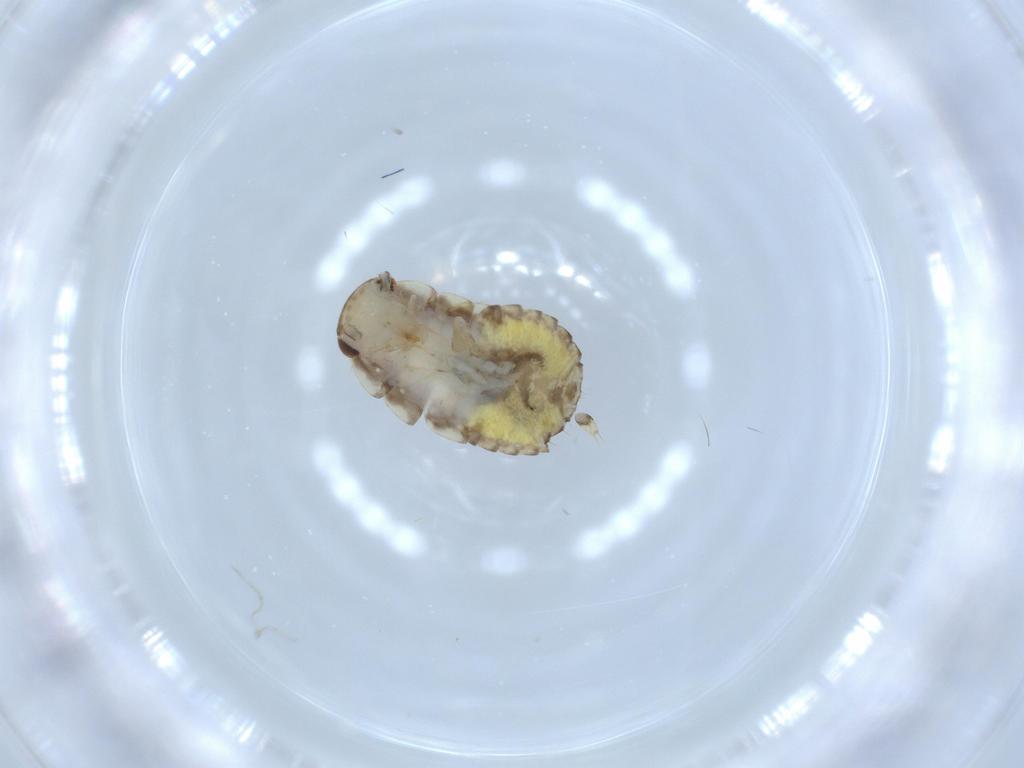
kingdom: Animalia
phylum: Arthropoda
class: Insecta
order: Blattodea
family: Ectobiidae
